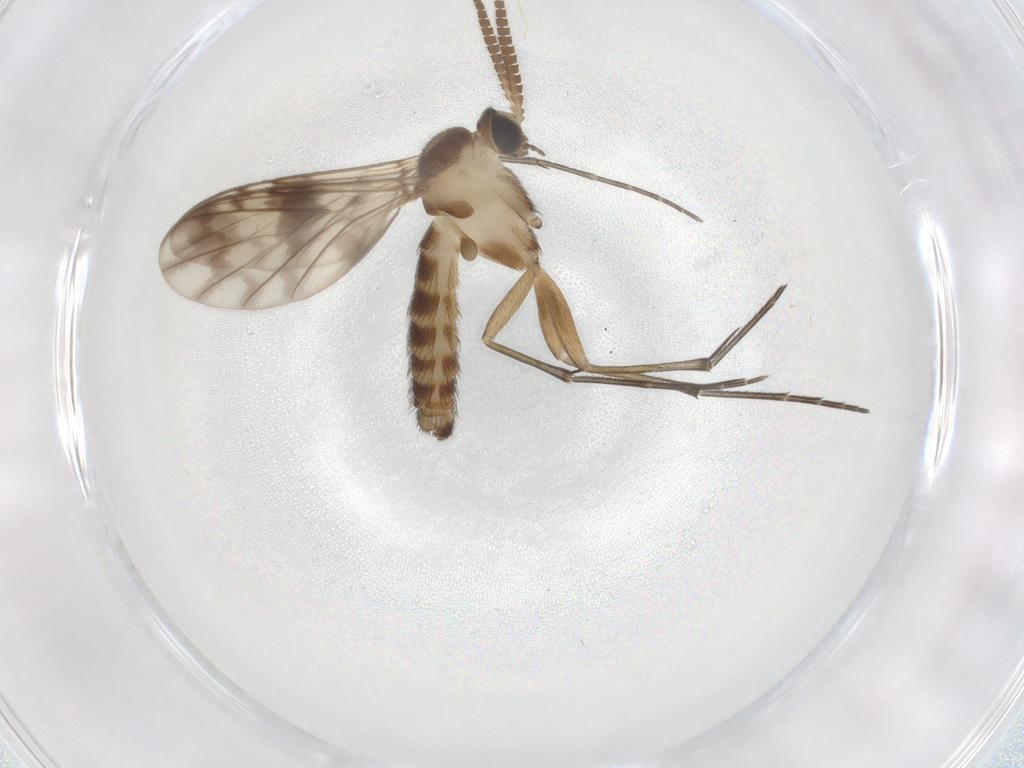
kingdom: Animalia
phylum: Arthropoda
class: Insecta
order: Diptera
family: Keroplatidae
